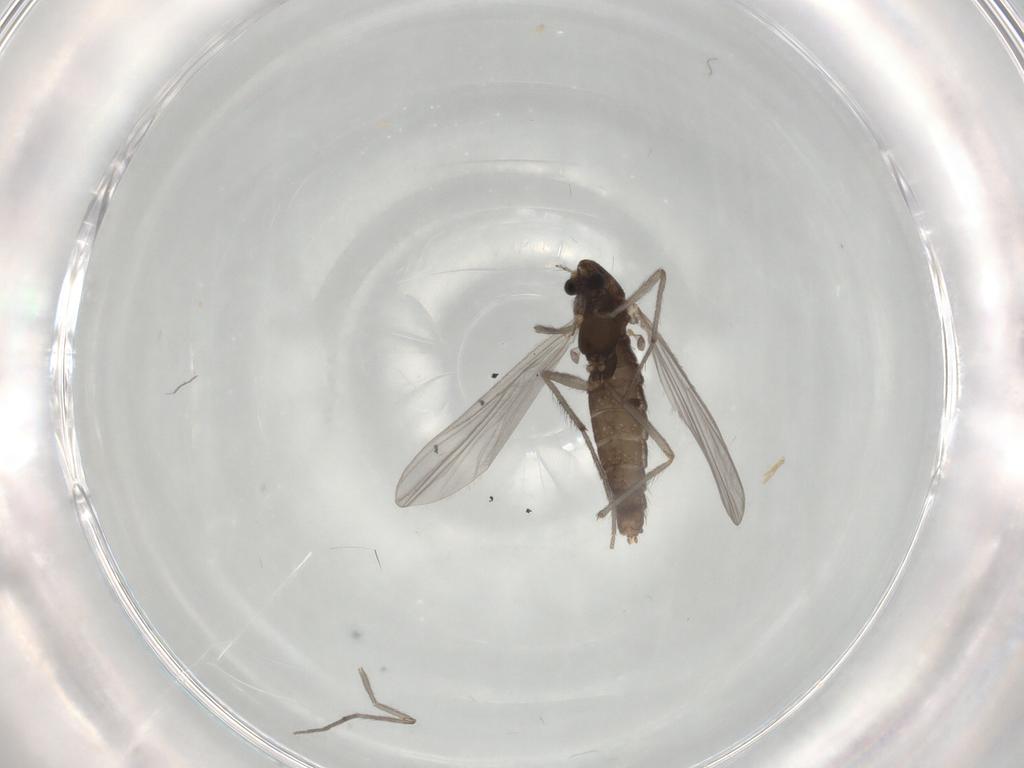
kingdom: Animalia
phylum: Arthropoda
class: Insecta
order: Diptera
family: Chironomidae
